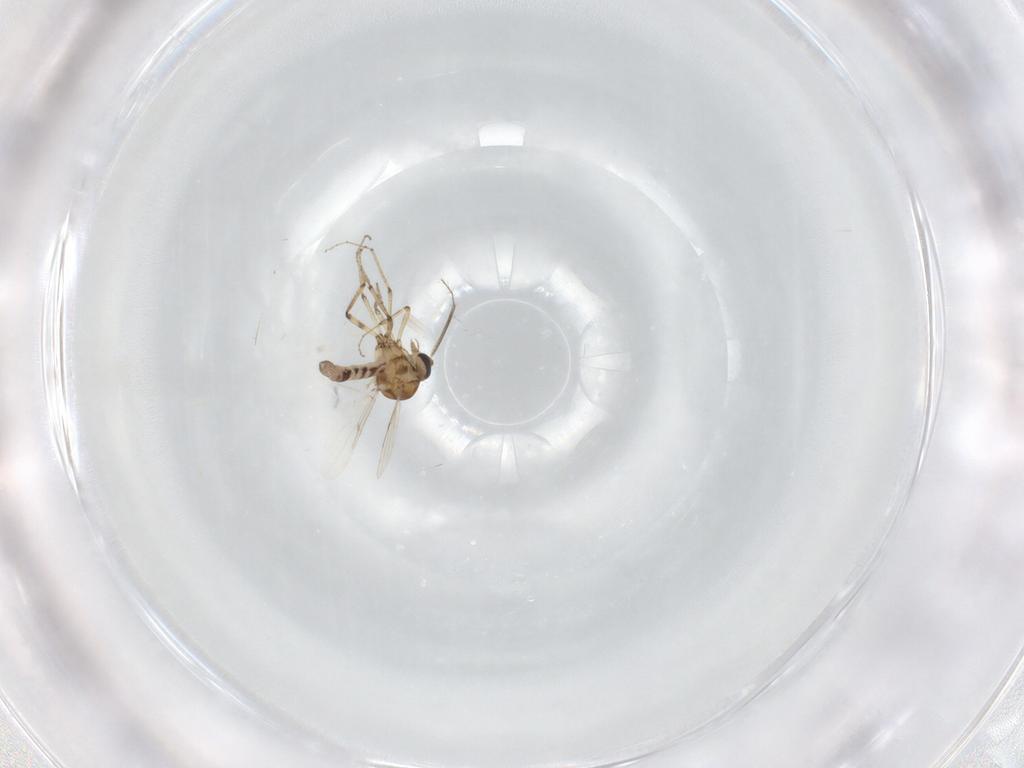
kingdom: Animalia
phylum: Arthropoda
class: Insecta
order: Diptera
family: Ceratopogonidae
